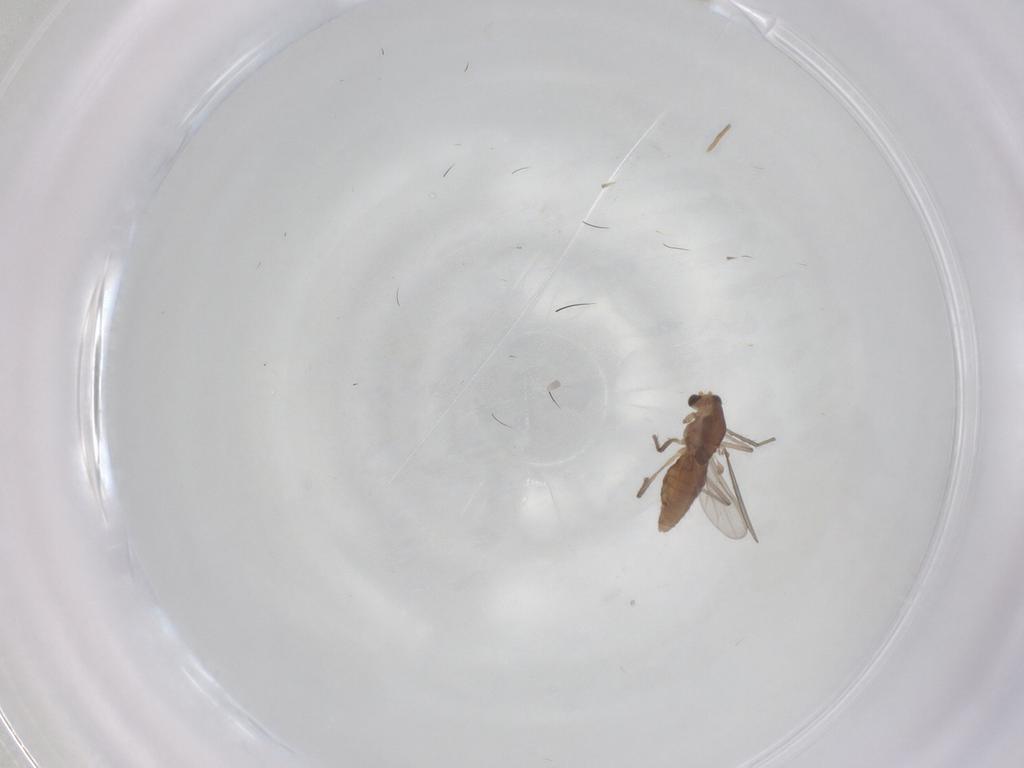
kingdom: Animalia
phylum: Arthropoda
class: Insecta
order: Diptera
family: Chironomidae
